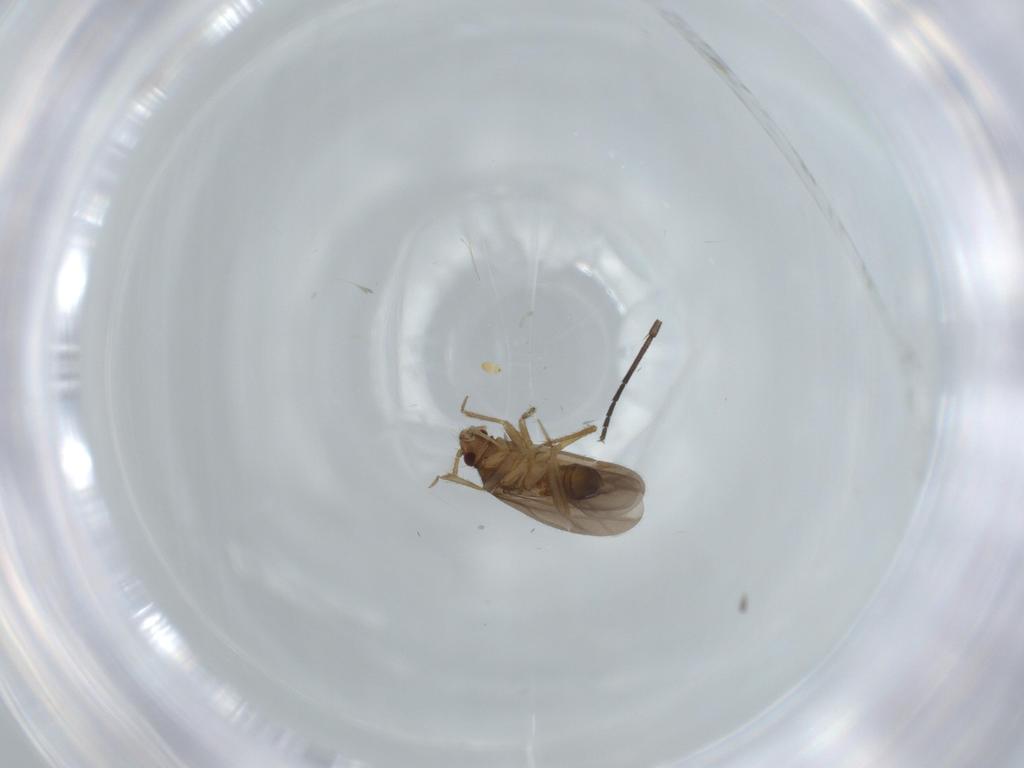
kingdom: Animalia
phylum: Arthropoda
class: Insecta
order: Hemiptera
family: Ceratocombidae
